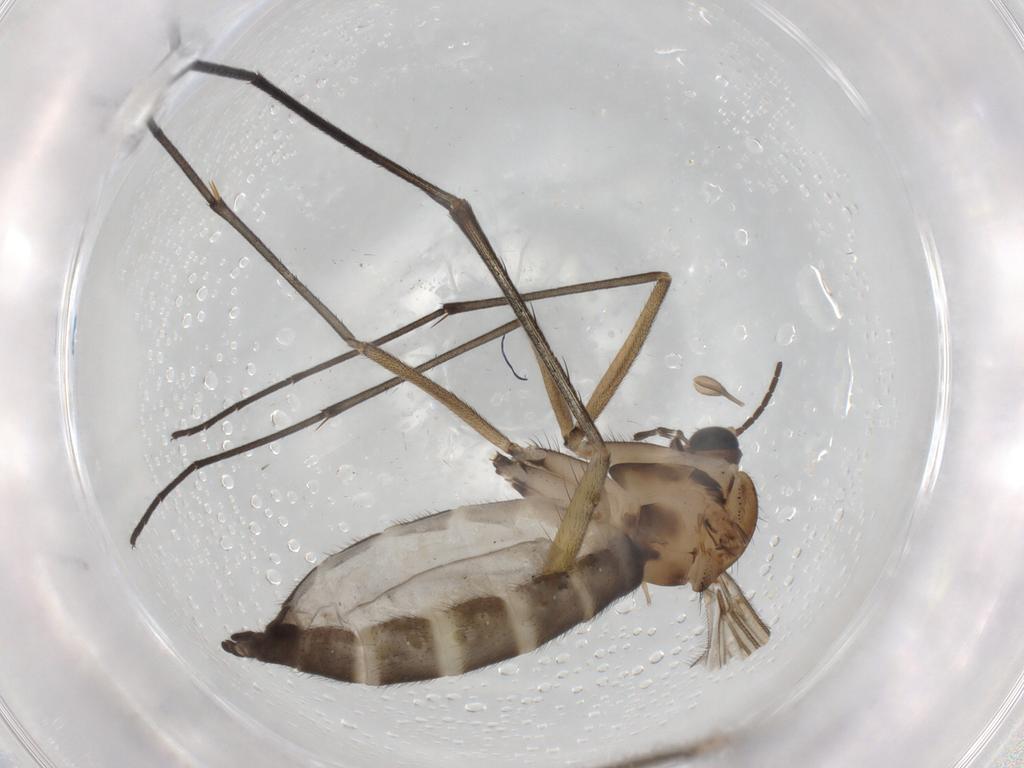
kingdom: Animalia
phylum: Arthropoda
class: Insecta
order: Diptera
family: Sciaridae
